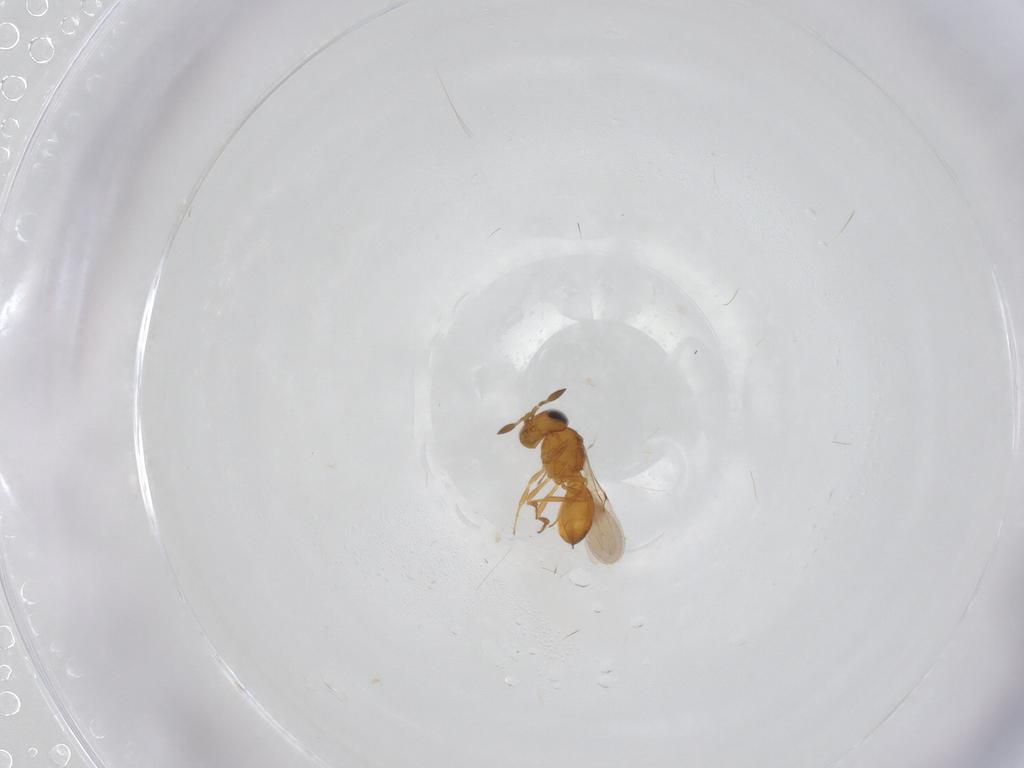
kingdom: Animalia
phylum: Arthropoda
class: Insecta
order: Hymenoptera
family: Scelionidae
